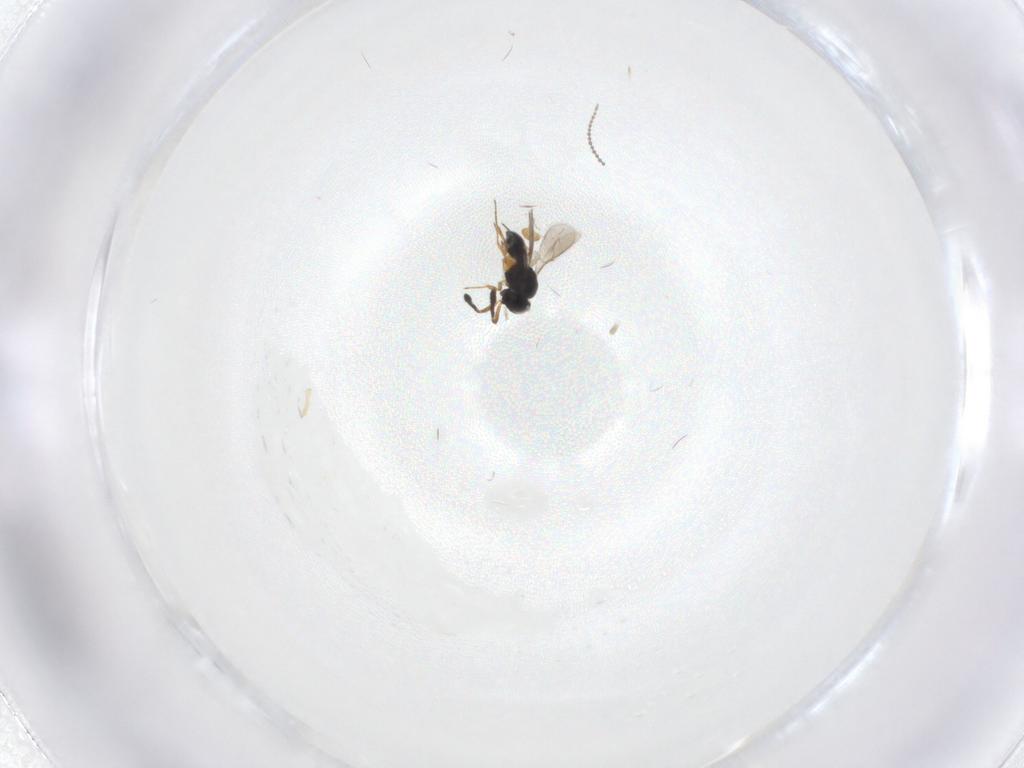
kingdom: Animalia
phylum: Arthropoda
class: Insecta
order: Hymenoptera
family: Scelionidae
